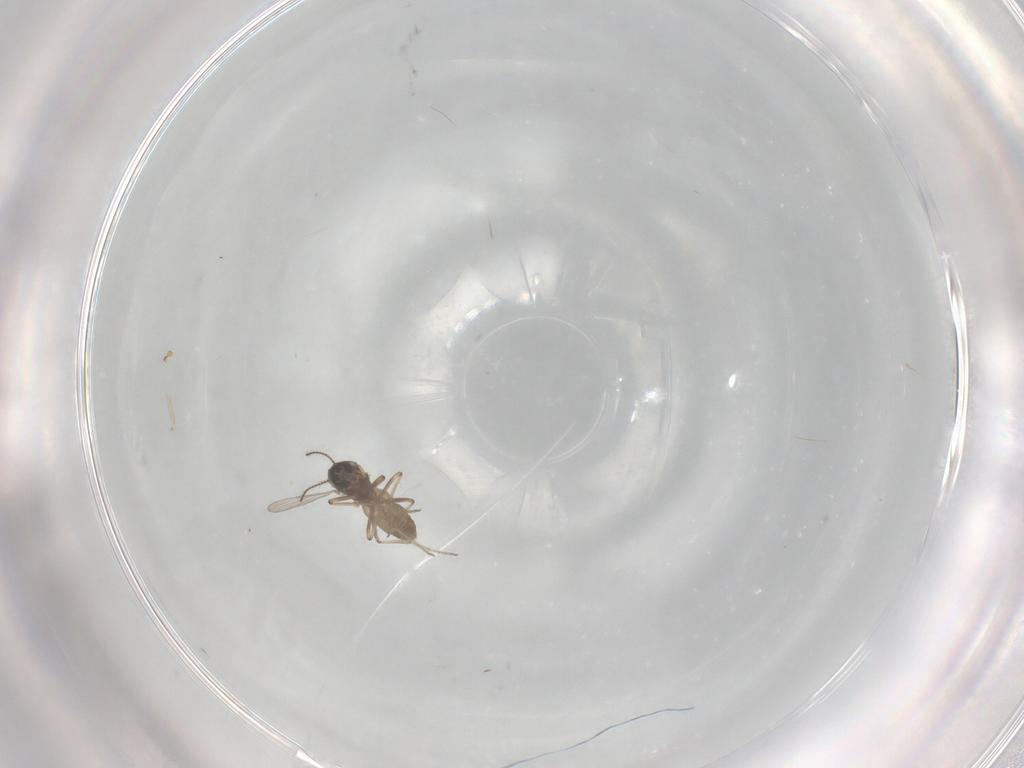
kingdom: Animalia
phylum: Arthropoda
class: Insecta
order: Diptera
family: Ceratopogonidae
